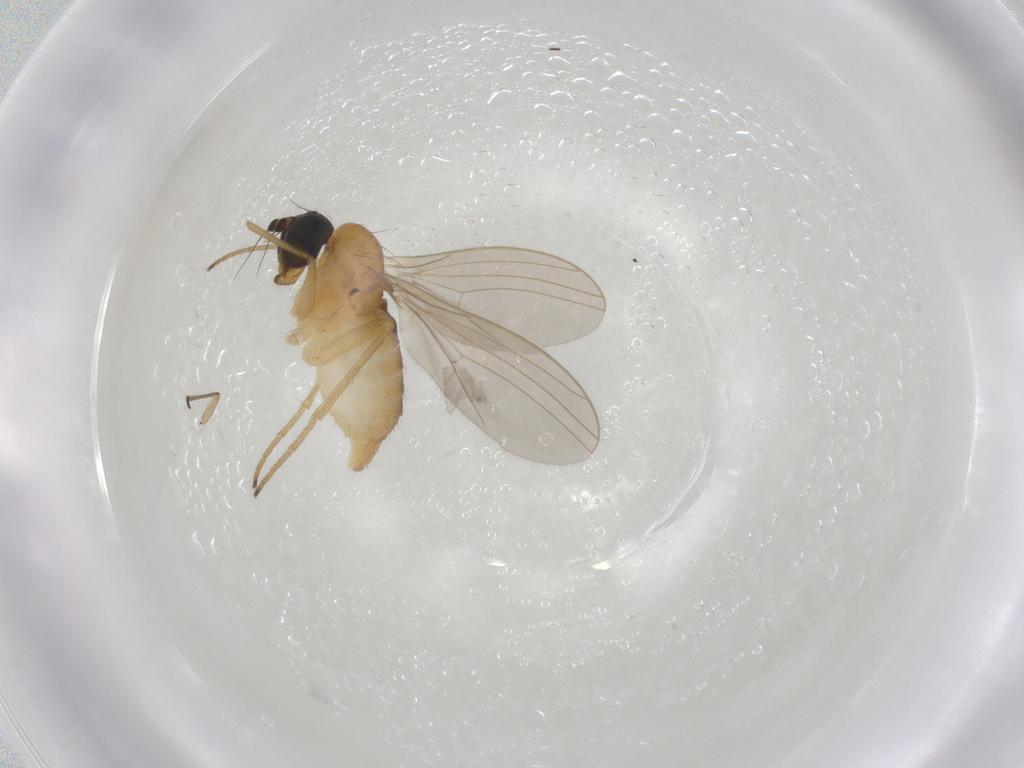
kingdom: Animalia
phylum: Arthropoda
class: Insecta
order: Diptera
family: Dolichopodidae
